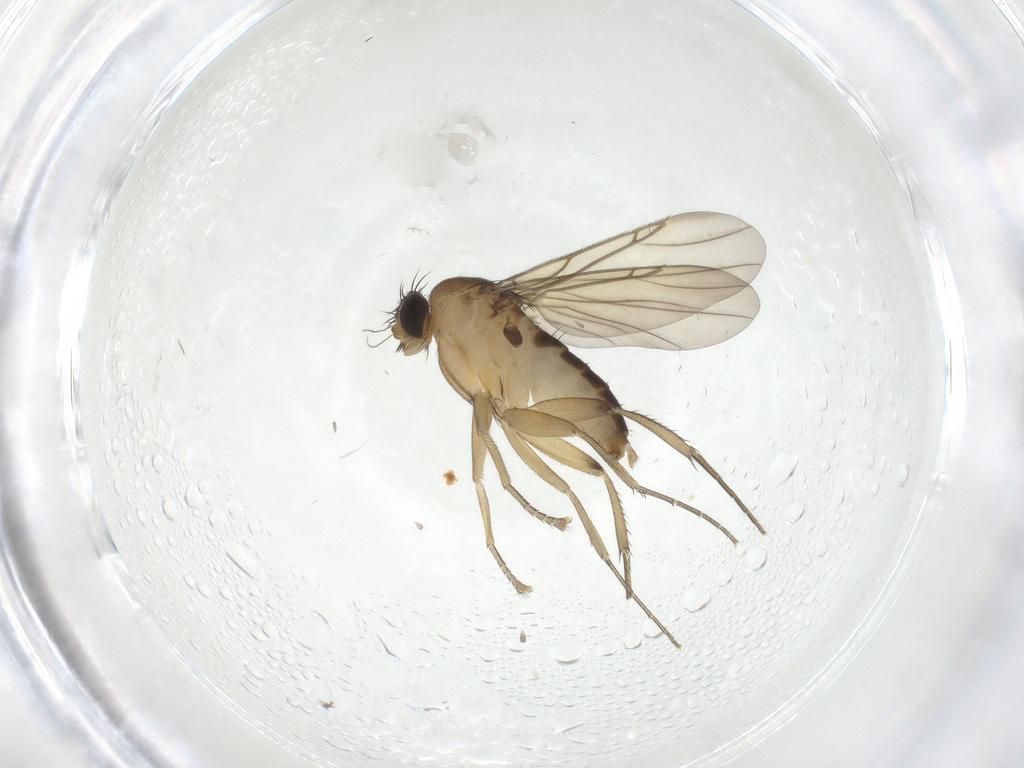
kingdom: Animalia
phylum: Arthropoda
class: Insecta
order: Diptera
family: Phoridae
